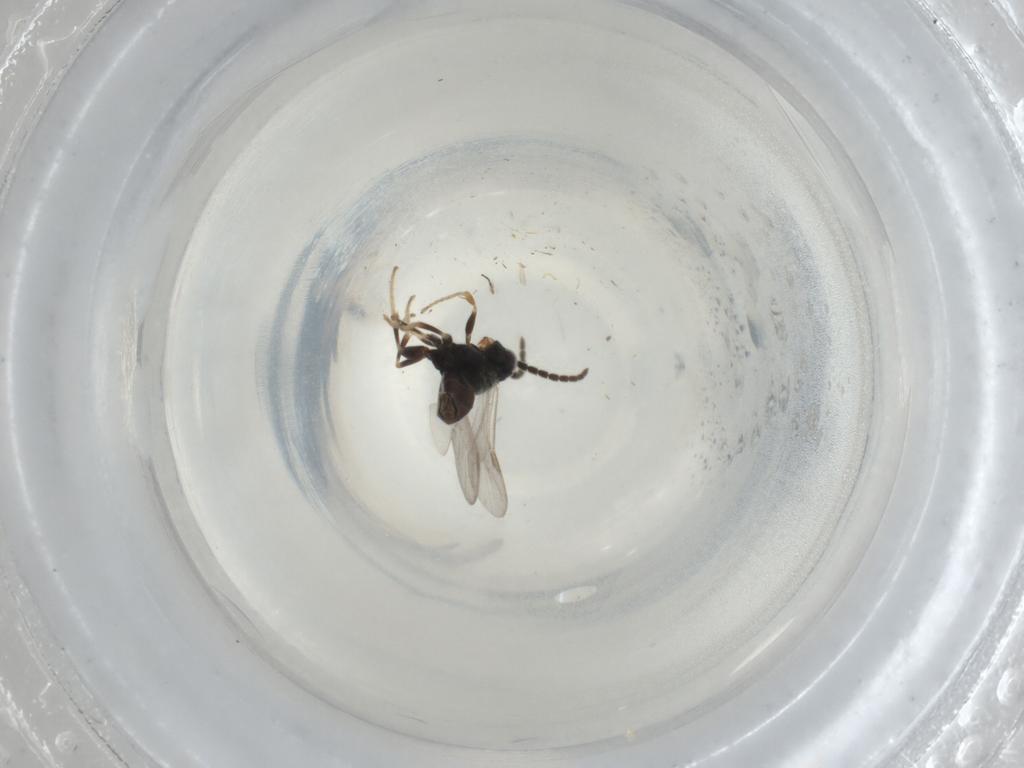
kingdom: Animalia
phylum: Arthropoda
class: Insecta
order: Hymenoptera
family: Dryinidae
